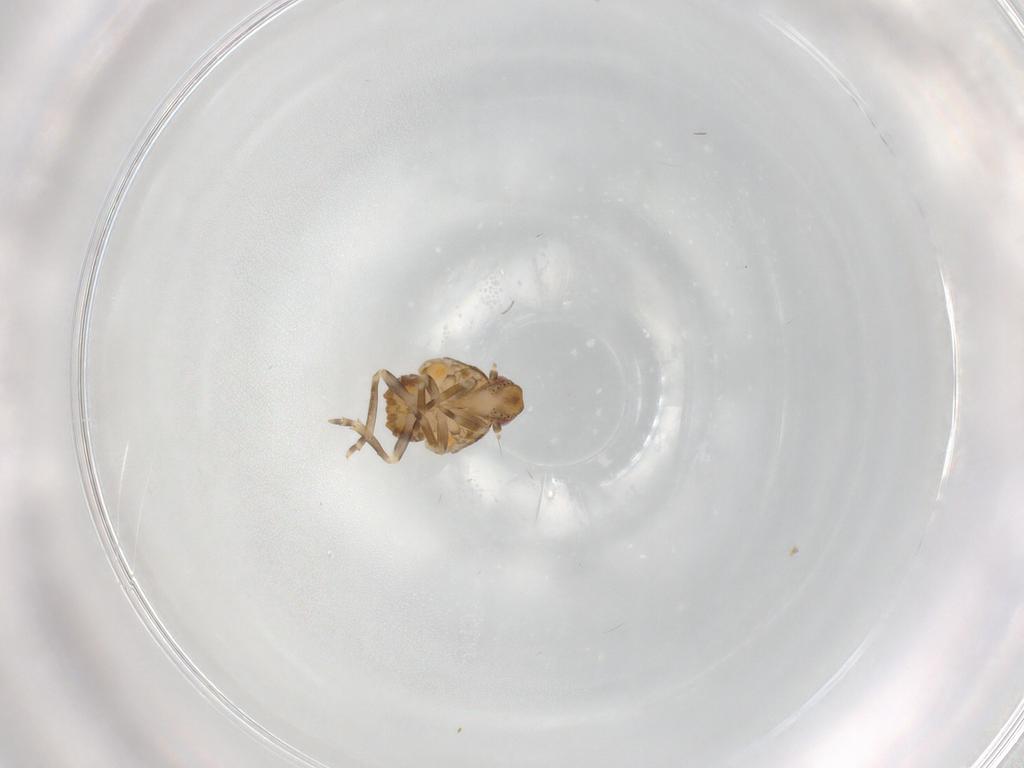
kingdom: Animalia
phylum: Arthropoda
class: Insecta
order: Hemiptera
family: Flatidae
